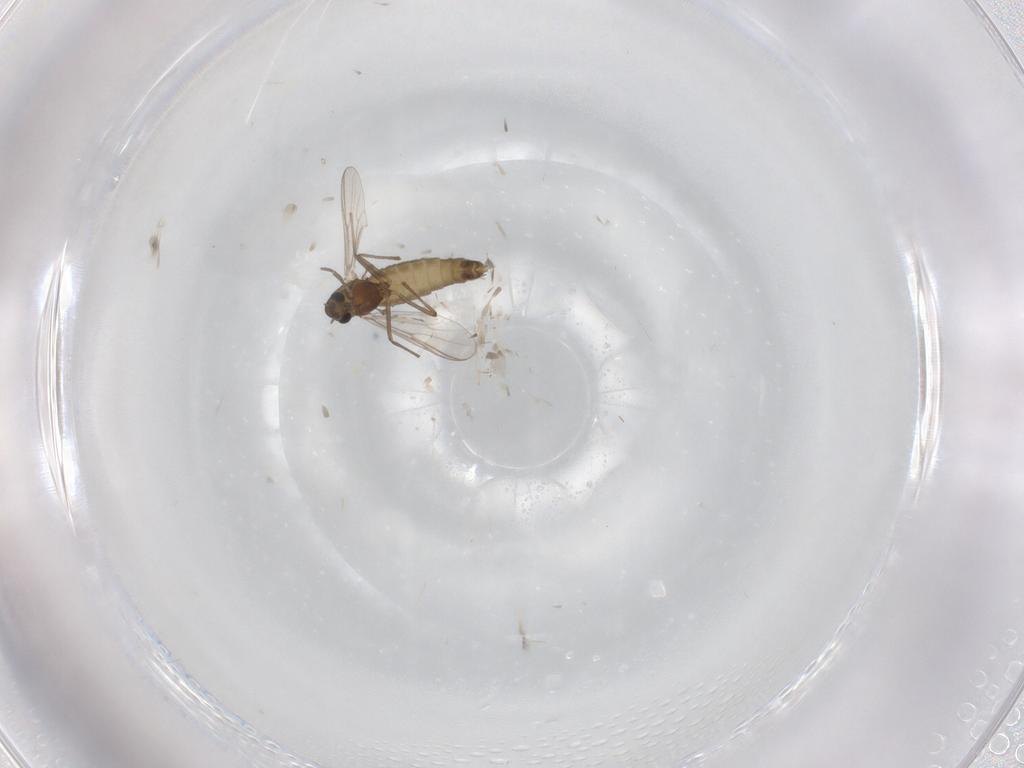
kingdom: Animalia
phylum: Arthropoda
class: Insecta
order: Diptera
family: Chironomidae
